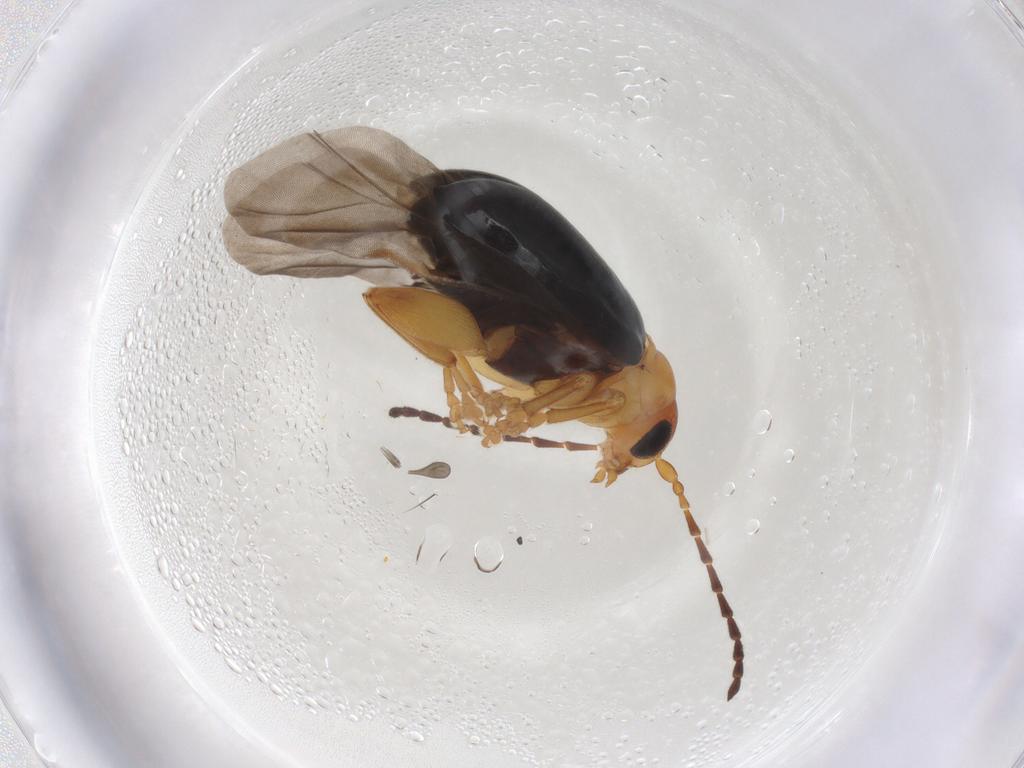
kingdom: Animalia
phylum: Arthropoda
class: Insecta
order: Coleoptera
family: Chrysomelidae
